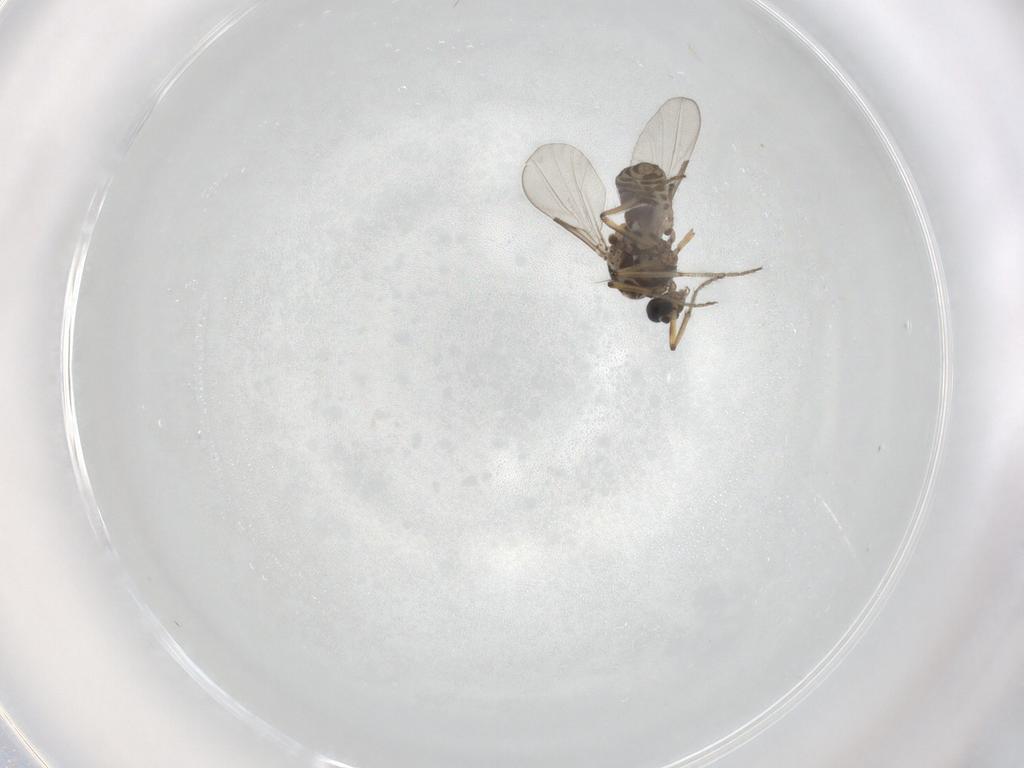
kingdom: Animalia
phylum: Arthropoda
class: Insecta
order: Diptera
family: Ceratopogonidae
